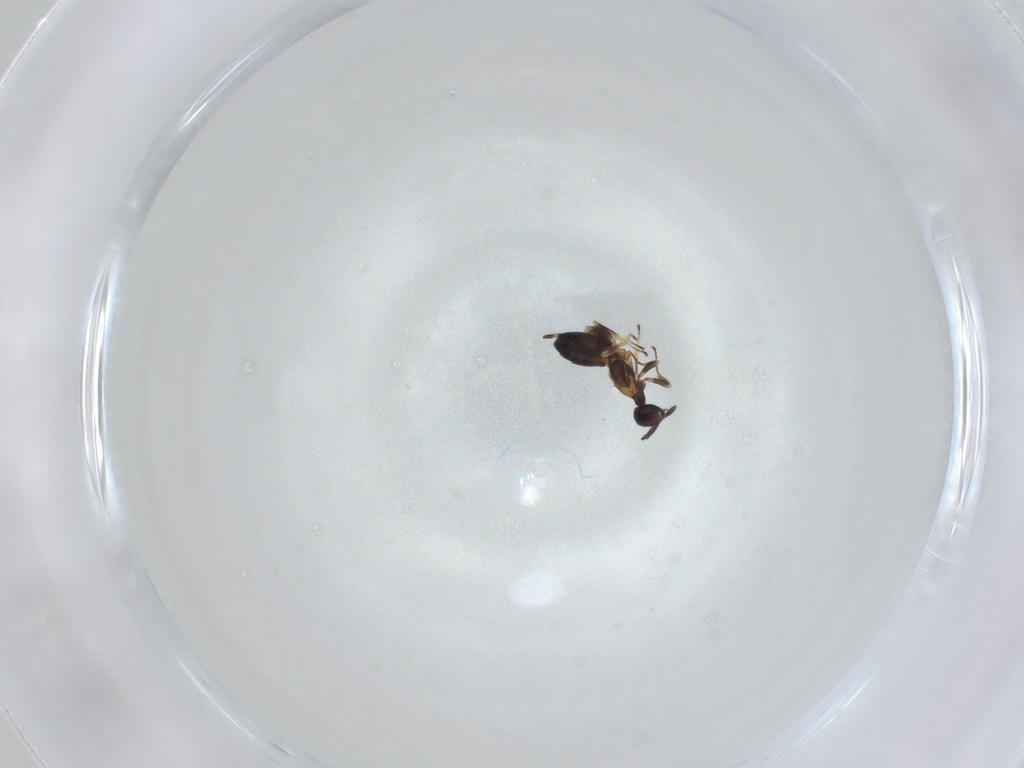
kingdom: Animalia
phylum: Arthropoda
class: Insecta
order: Hymenoptera
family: Eupelmidae
